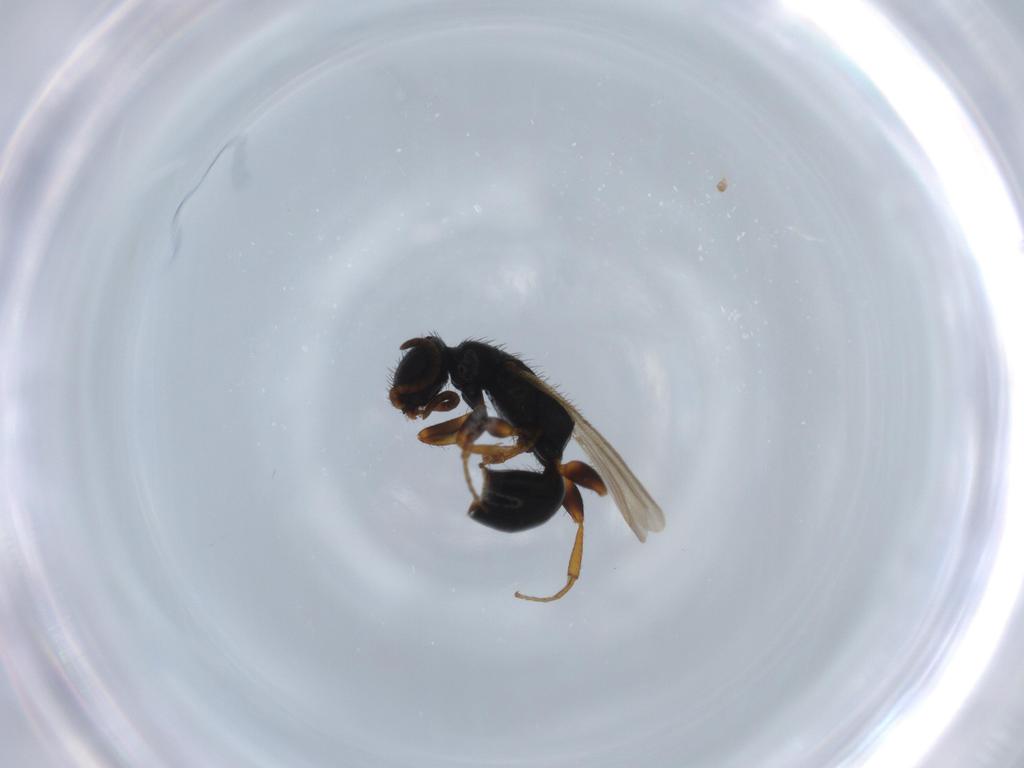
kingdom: Animalia
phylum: Arthropoda
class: Insecta
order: Hymenoptera
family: Bethylidae
